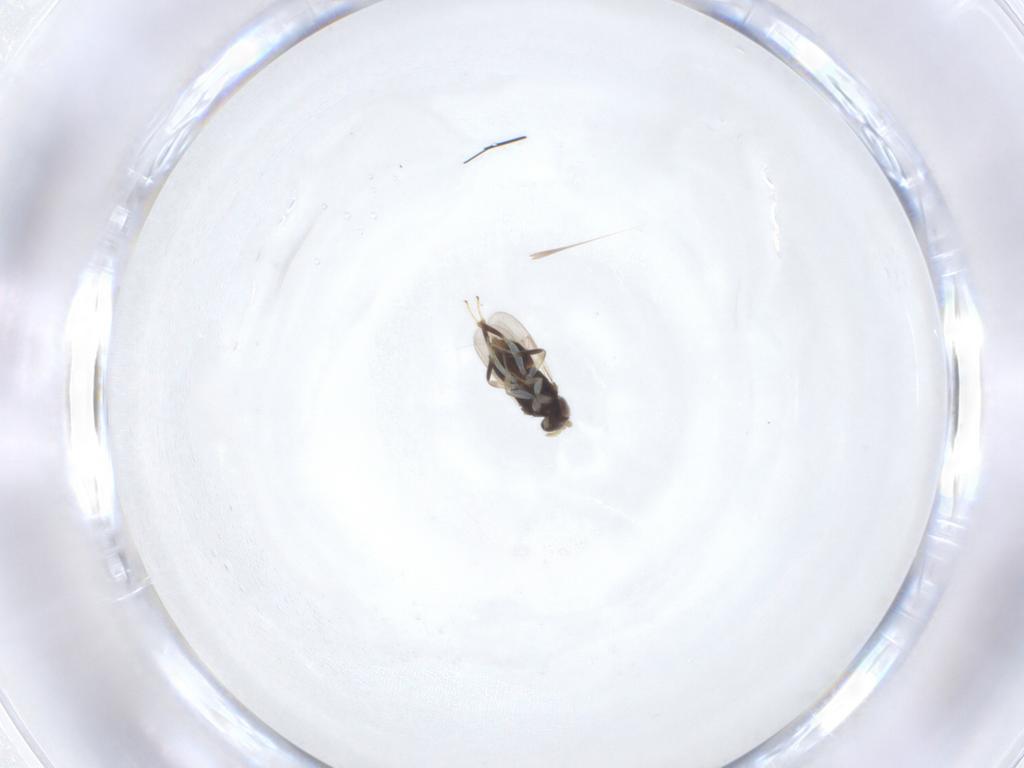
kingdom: Animalia
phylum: Arthropoda
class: Insecta
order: Hymenoptera
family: Aphelinidae
